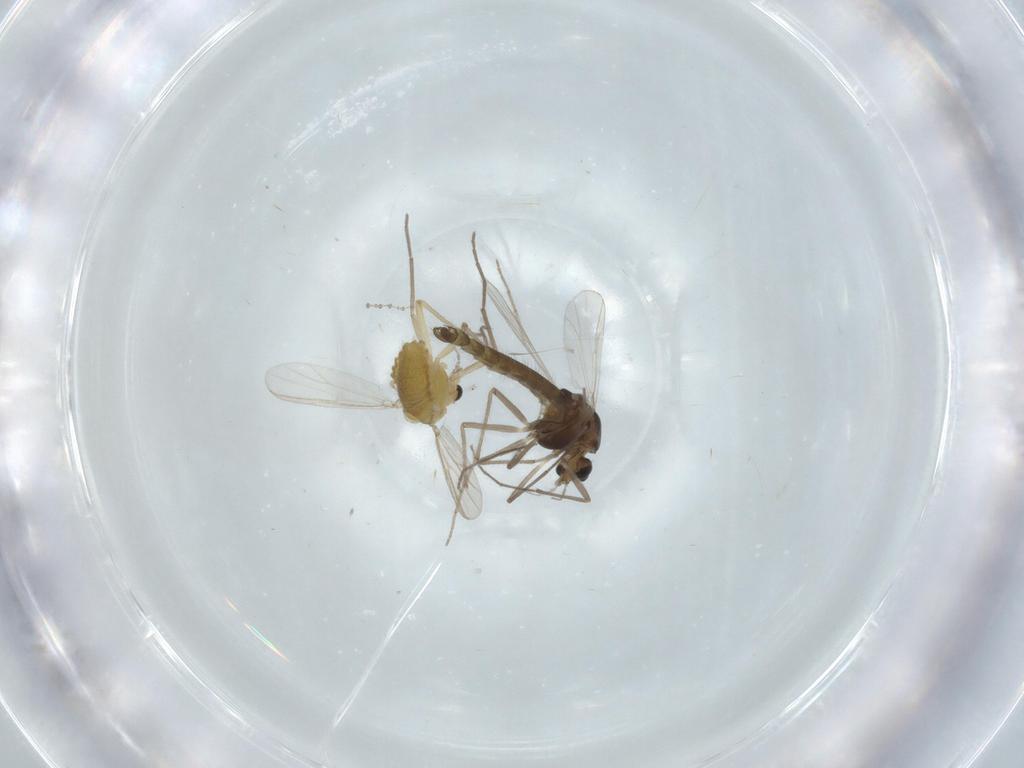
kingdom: Animalia
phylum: Arthropoda
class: Insecta
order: Diptera
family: Chironomidae
